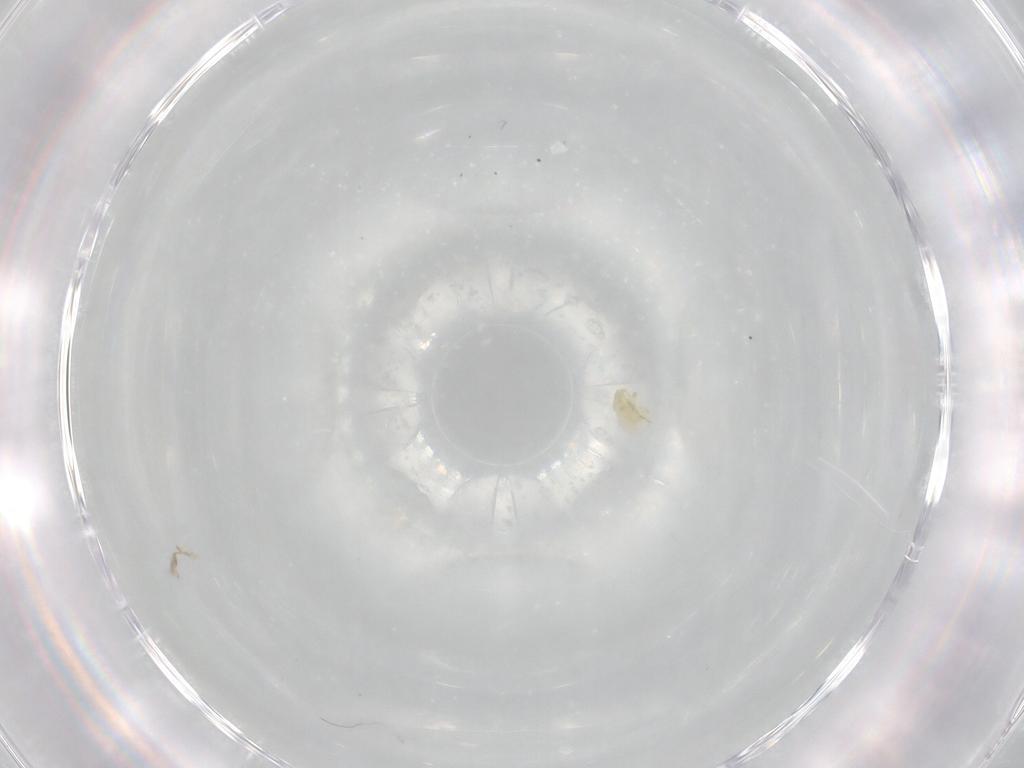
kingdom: Animalia
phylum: Arthropoda
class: Arachnida
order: Trombidiformes
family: Trombidiidae
